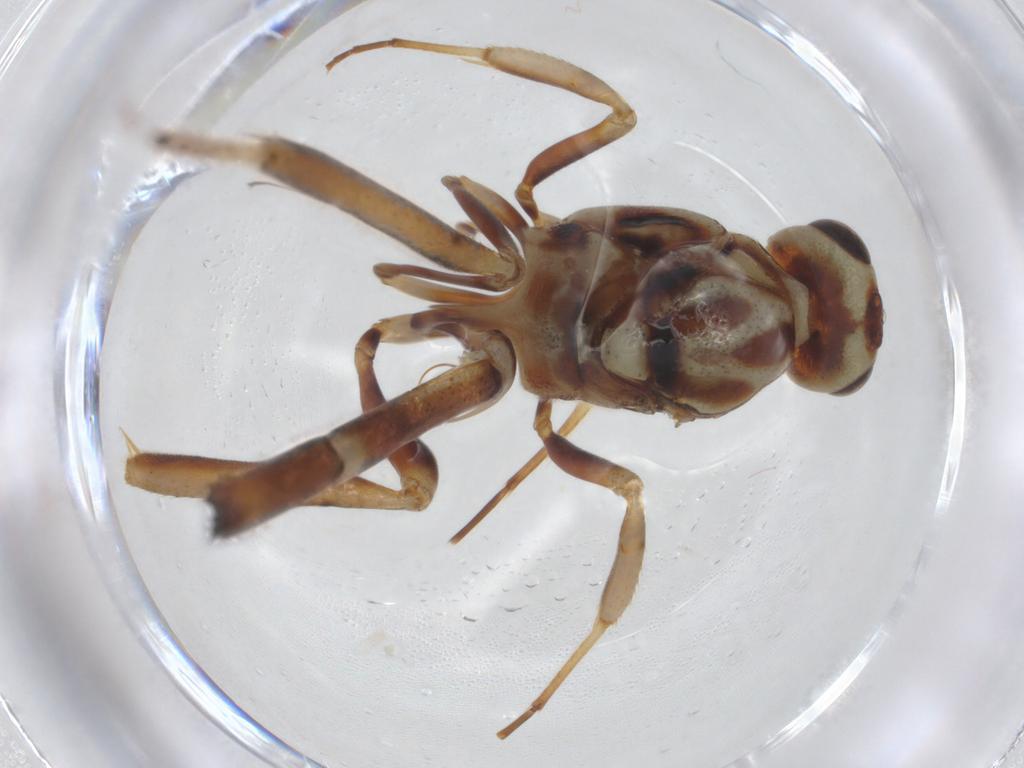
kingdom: Animalia
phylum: Arthropoda
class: Insecta
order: Hymenoptera
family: Ichneumonidae
